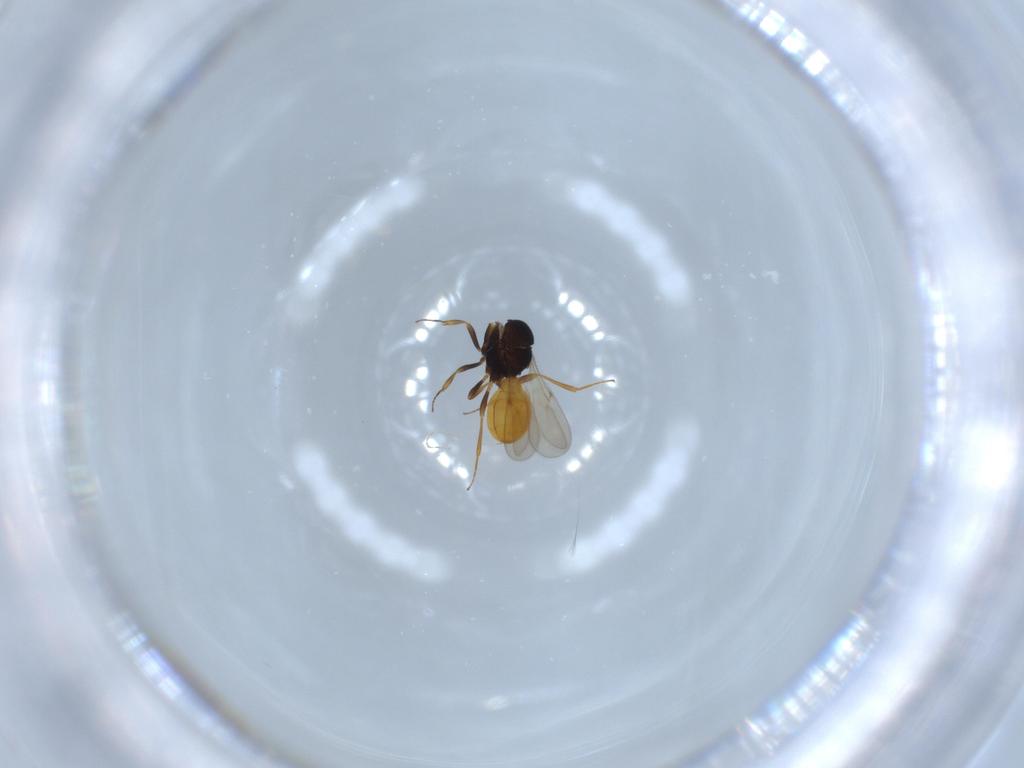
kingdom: Animalia
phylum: Arthropoda
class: Insecta
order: Hymenoptera
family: Scelionidae
